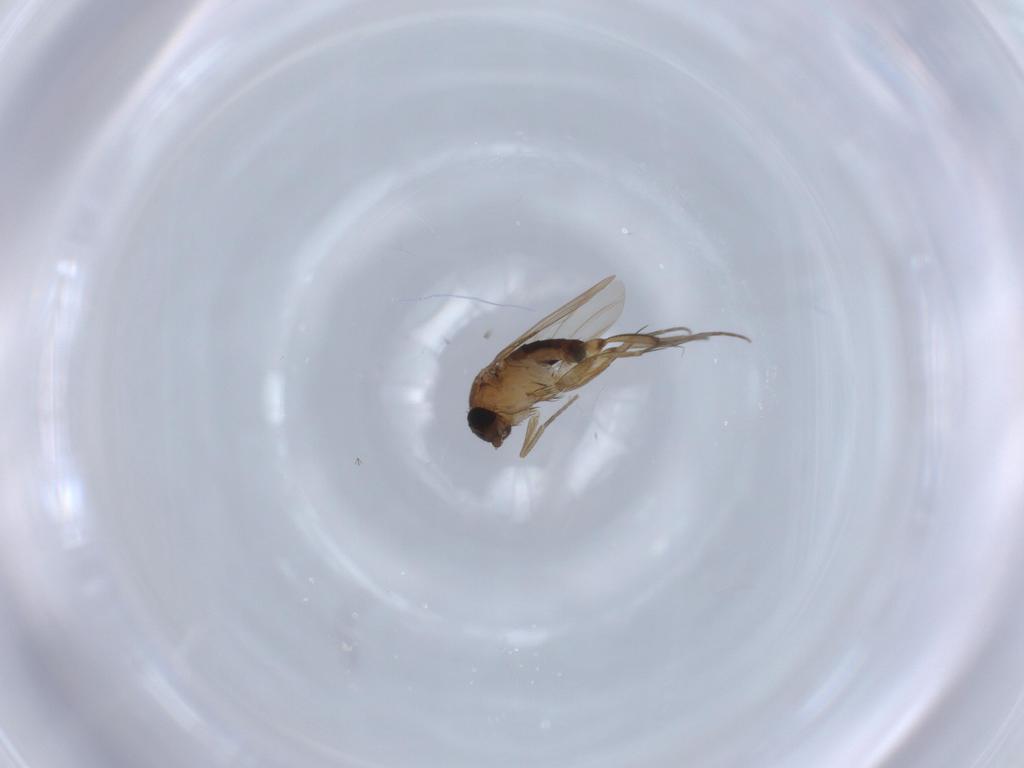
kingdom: Animalia
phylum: Arthropoda
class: Insecta
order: Diptera
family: Phoridae
